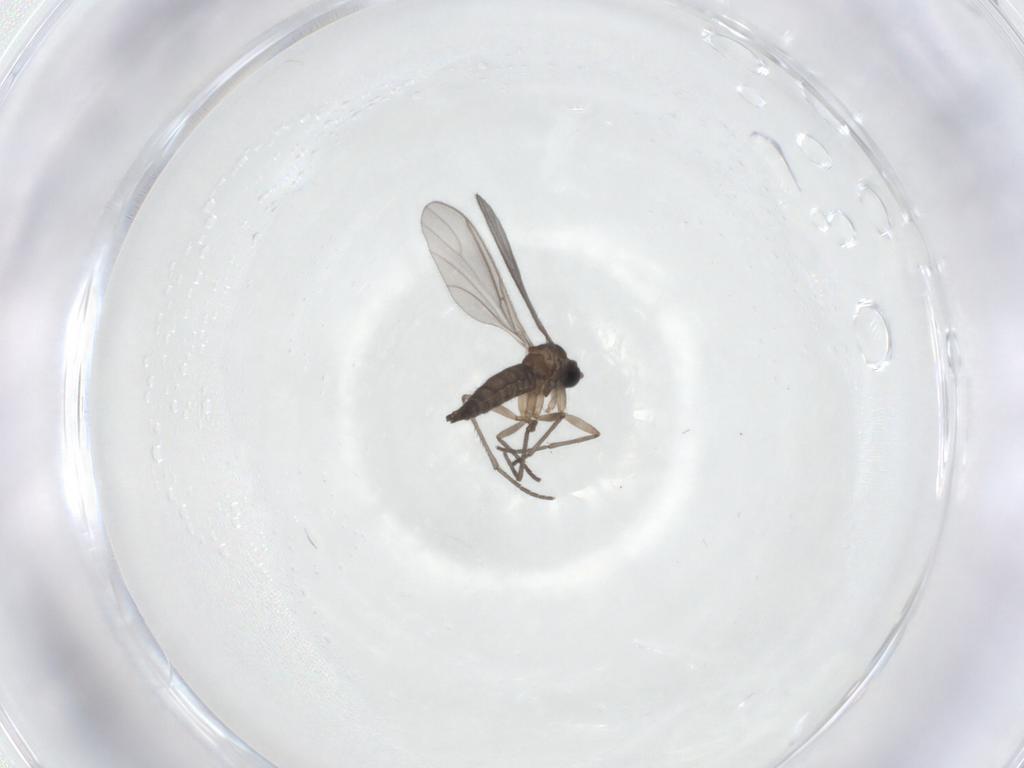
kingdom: Animalia
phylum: Arthropoda
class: Insecta
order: Diptera
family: Sciaridae
